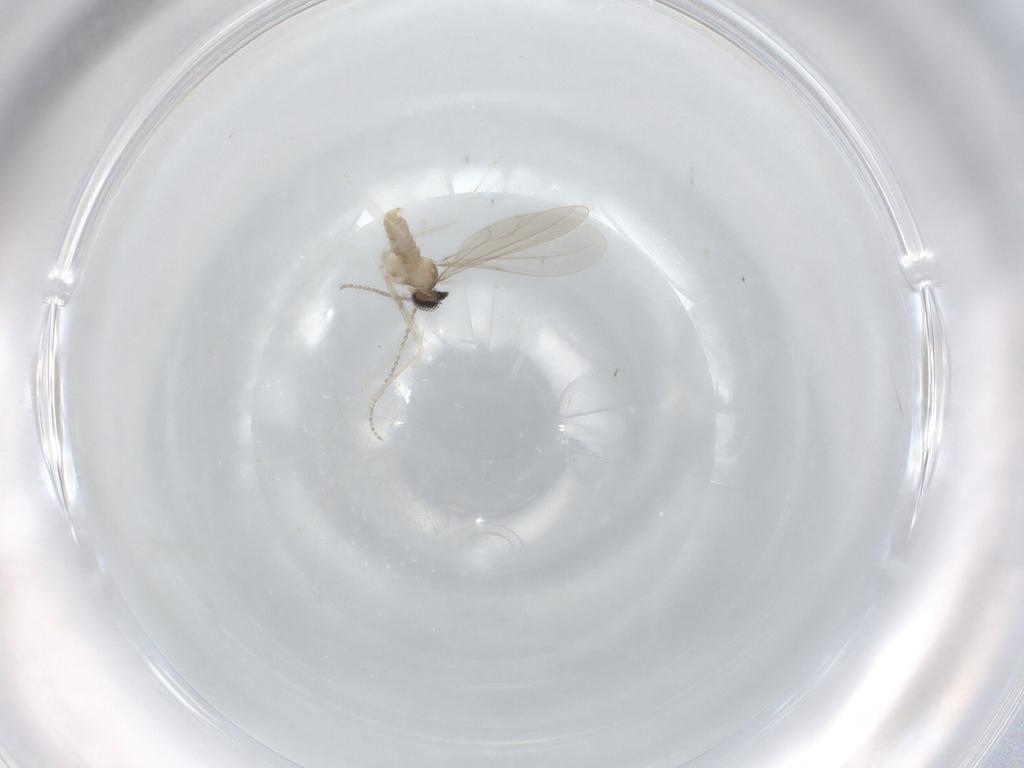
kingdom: Animalia
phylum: Arthropoda
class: Insecta
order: Diptera
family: Cecidomyiidae
